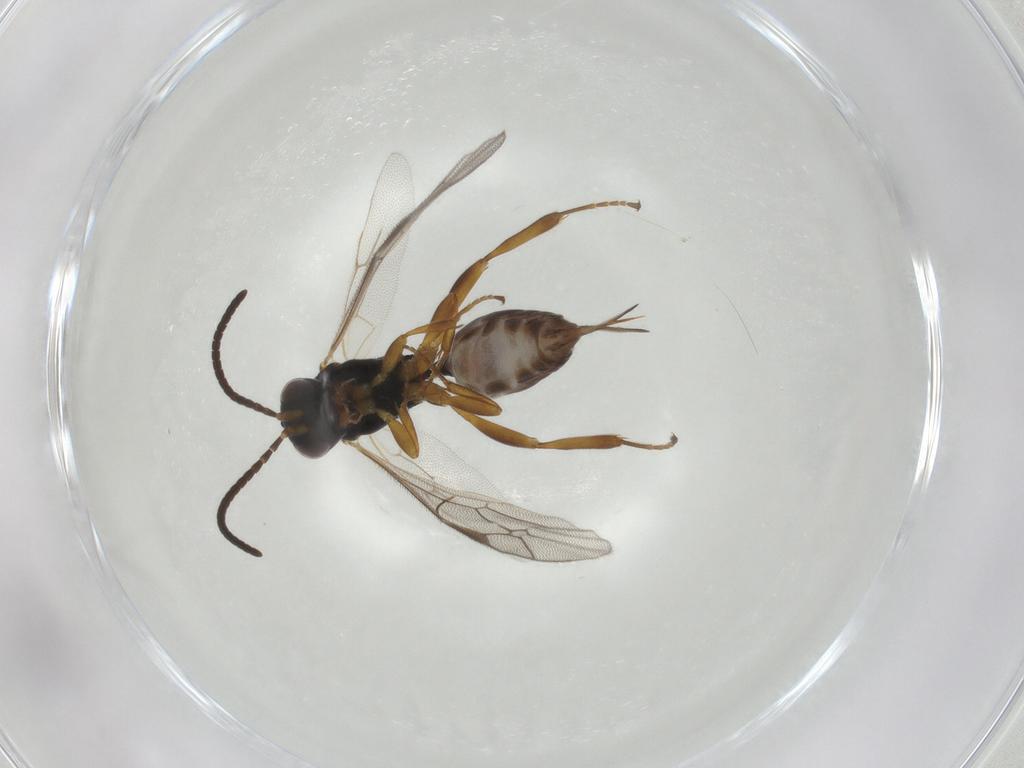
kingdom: Animalia
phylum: Arthropoda
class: Insecta
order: Hymenoptera
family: Ichneumonidae
